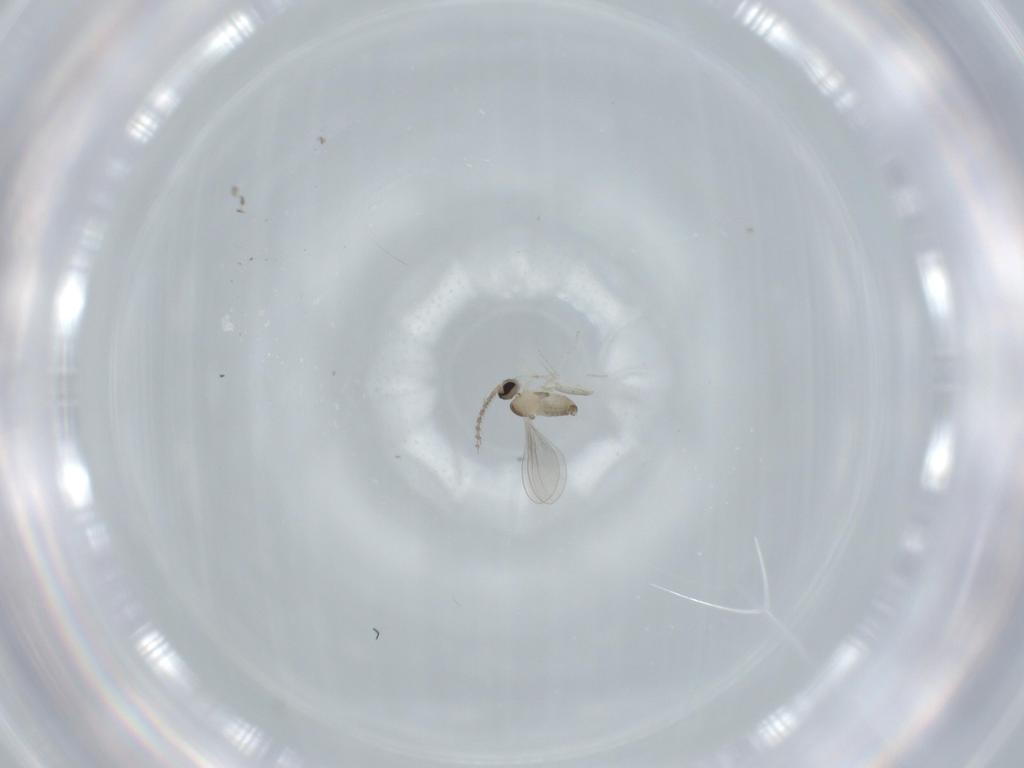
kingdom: Animalia
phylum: Arthropoda
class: Insecta
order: Diptera
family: Cecidomyiidae
